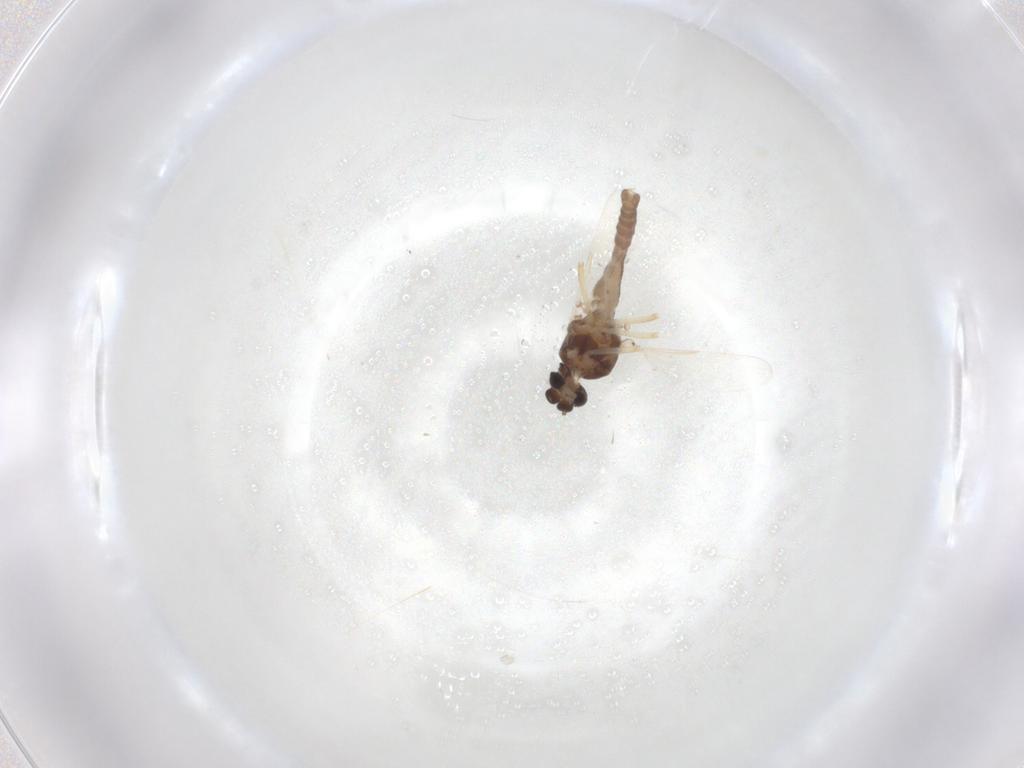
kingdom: Animalia
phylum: Arthropoda
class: Insecta
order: Diptera
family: Ceratopogonidae
